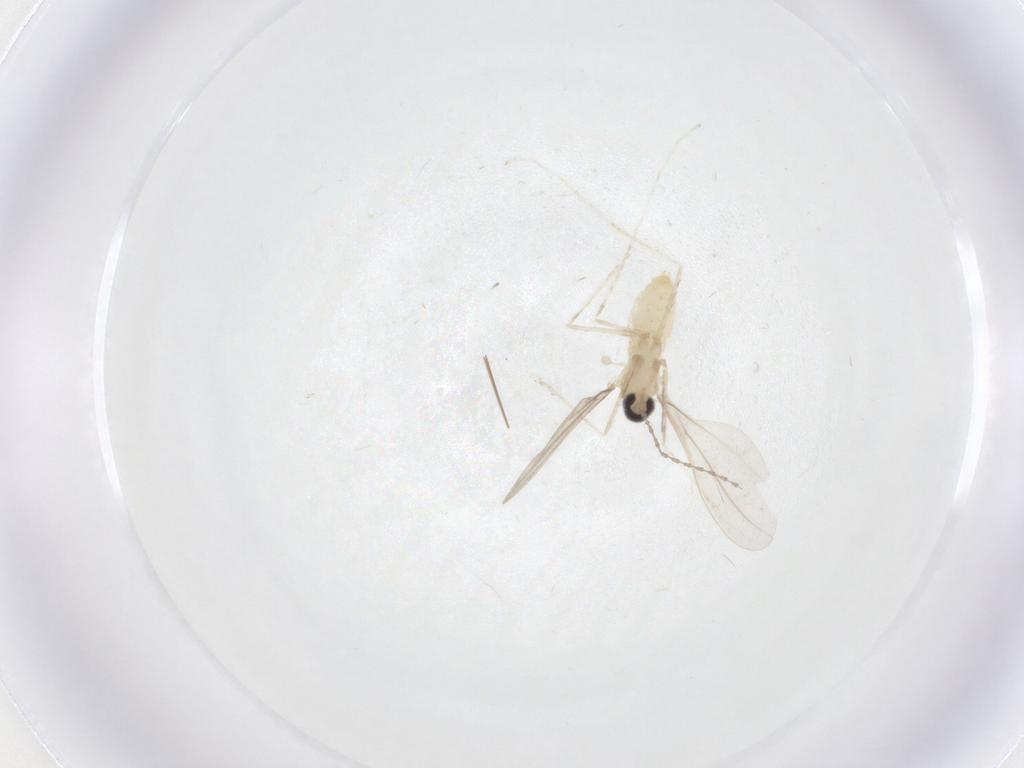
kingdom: Animalia
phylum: Arthropoda
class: Insecta
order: Diptera
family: Cecidomyiidae
